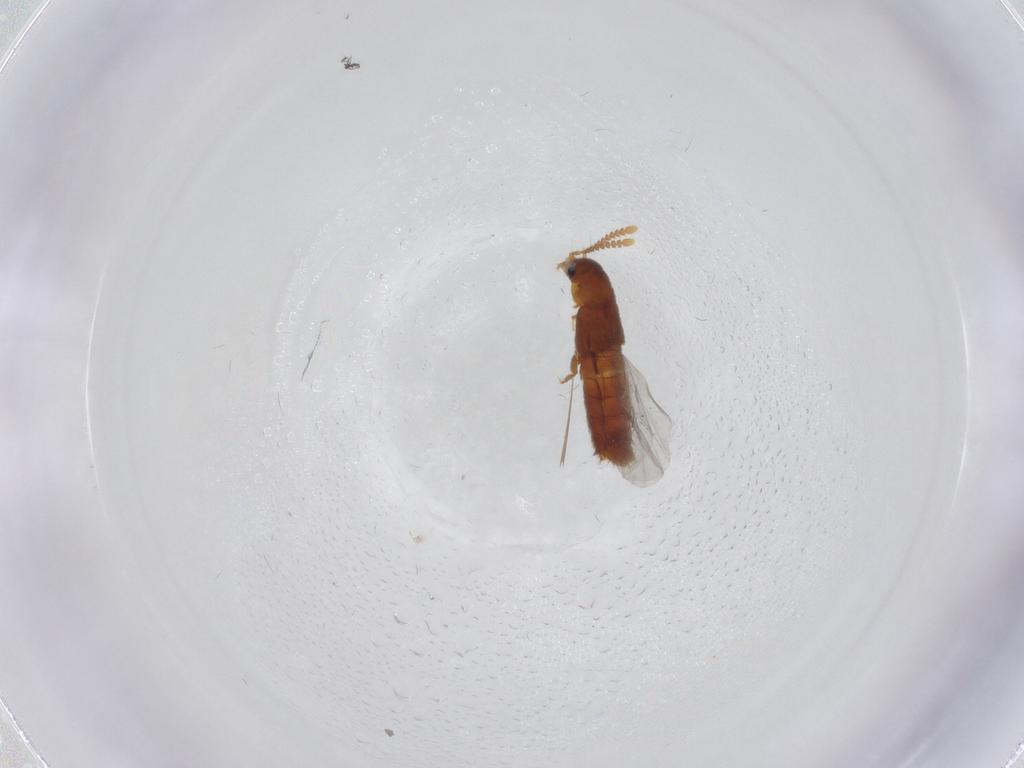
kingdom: Animalia
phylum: Arthropoda
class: Insecta
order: Coleoptera
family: Staphylinidae
